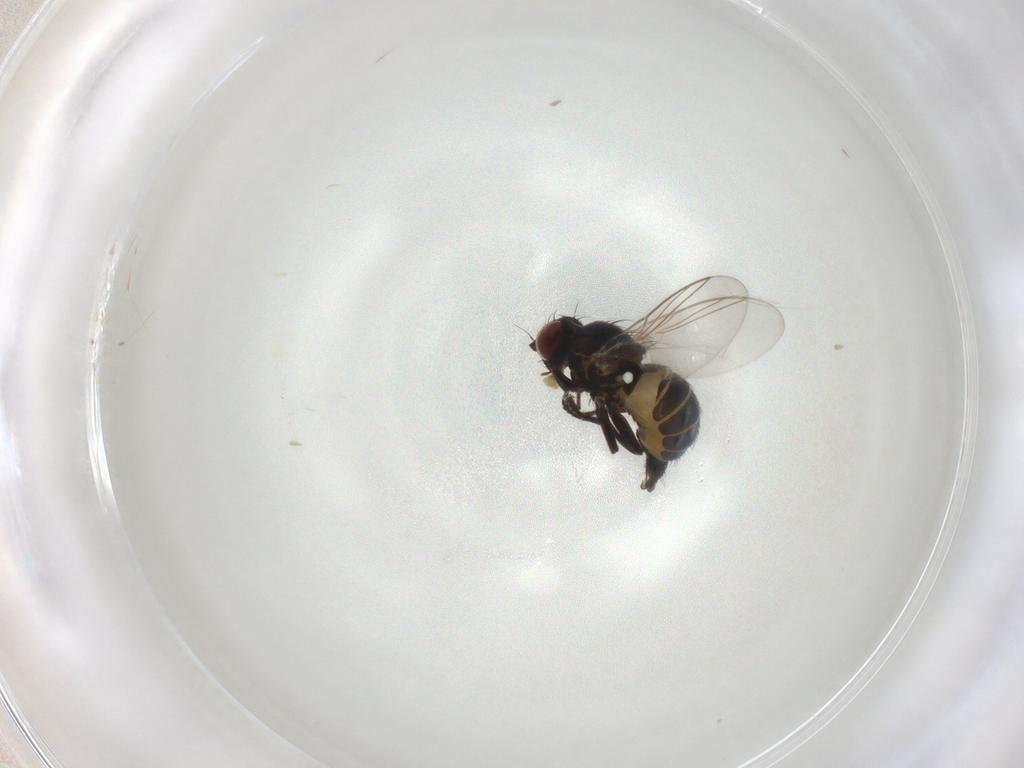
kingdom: Animalia
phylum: Arthropoda
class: Insecta
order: Diptera
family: Agromyzidae
